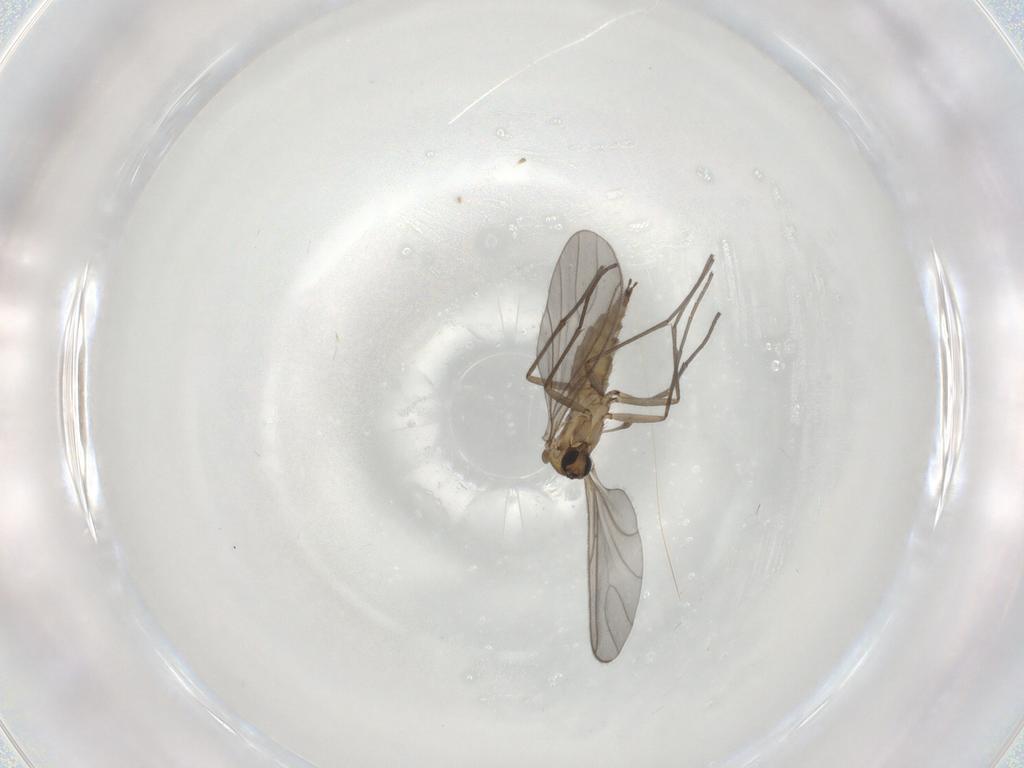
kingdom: Animalia
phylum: Arthropoda
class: Insecta
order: Diptera
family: Sciaridae
